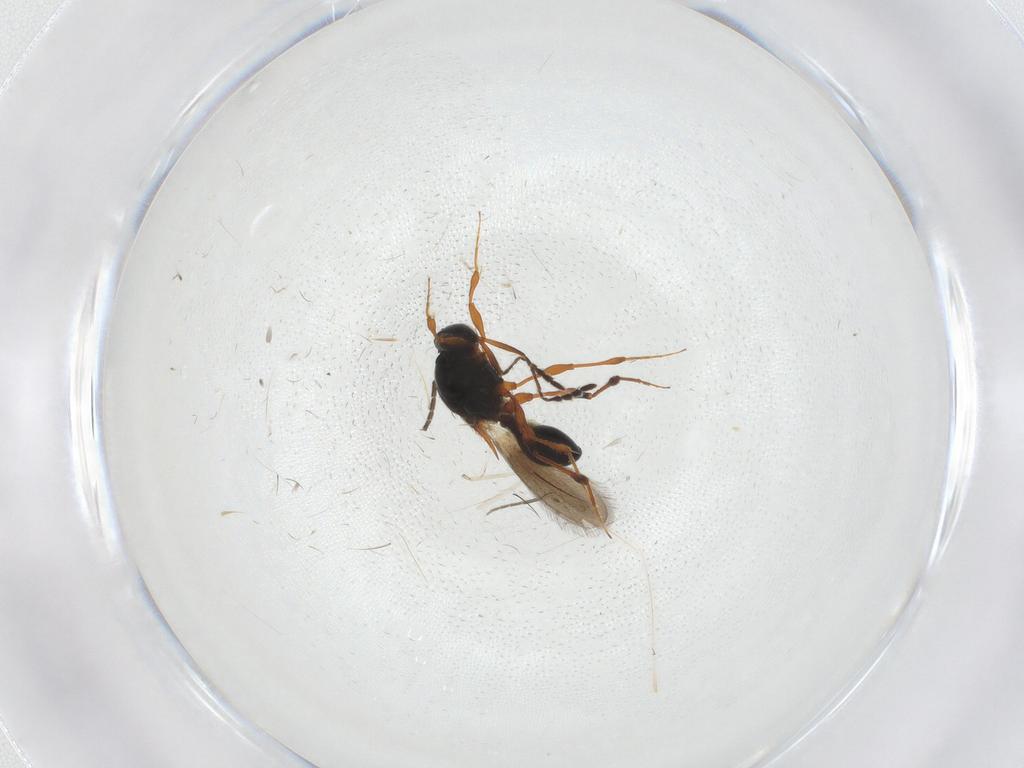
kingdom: Animalia
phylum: Arthropoda
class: Insecta
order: Hymenoptera
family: Platygastridae
